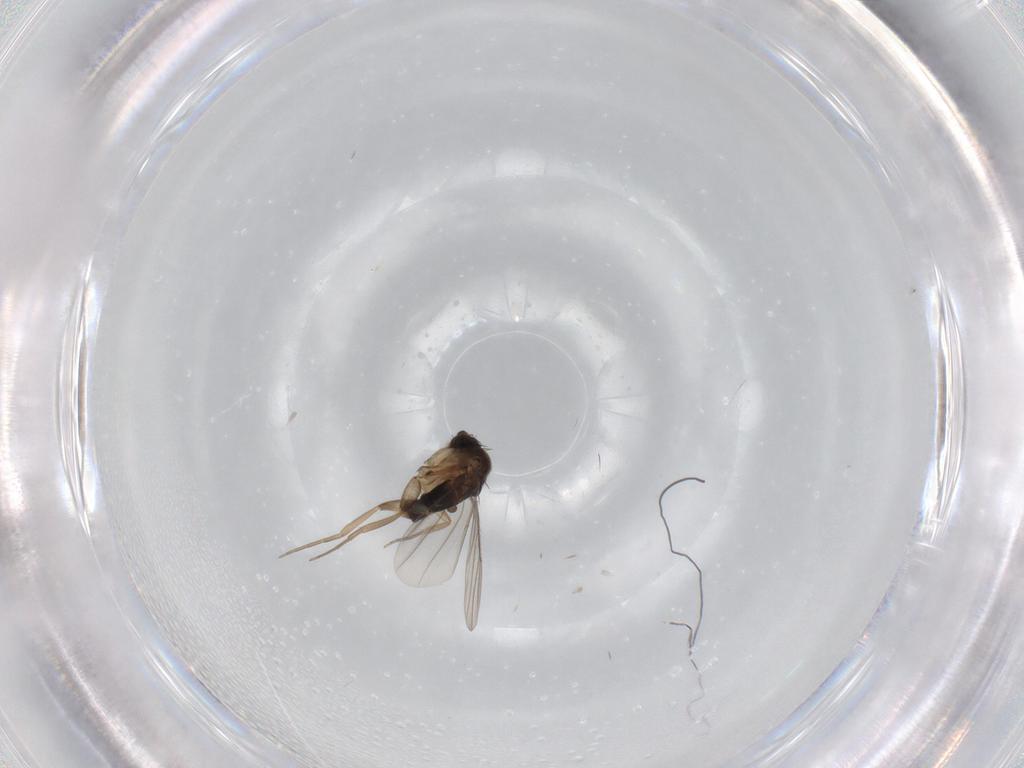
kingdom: Animalia
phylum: Arthropoda
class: Insecta
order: Diptera
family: Phoridae
